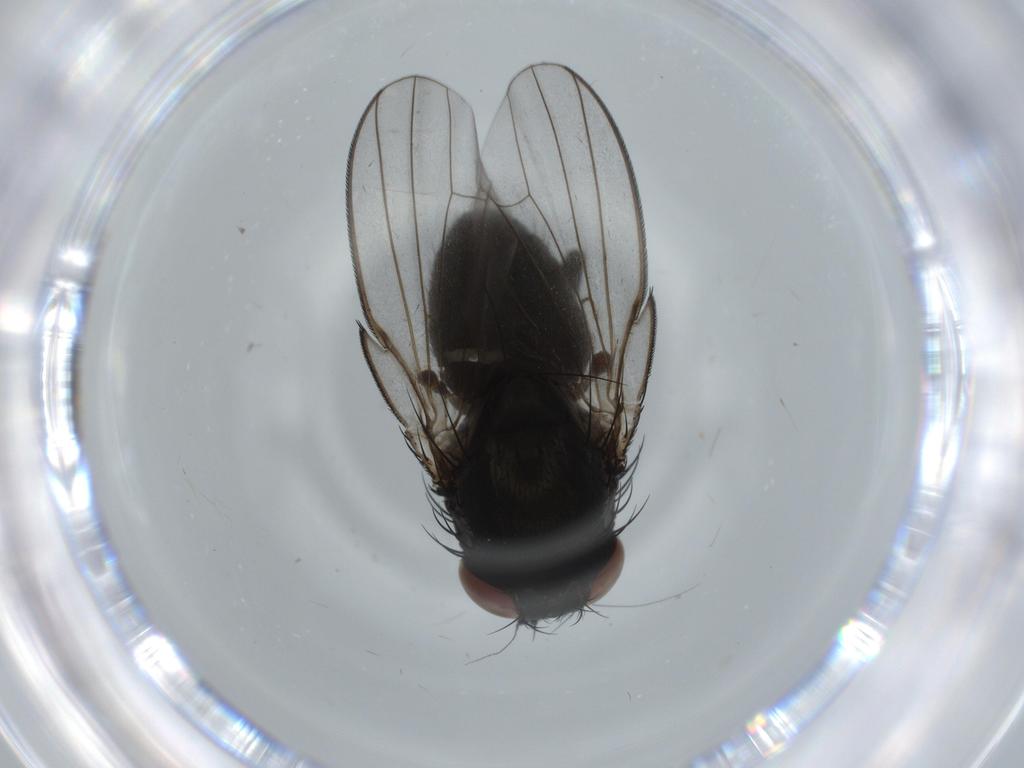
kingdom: Animalia
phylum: Arthropoda
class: Insecta
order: Diptera
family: Milichiidae
